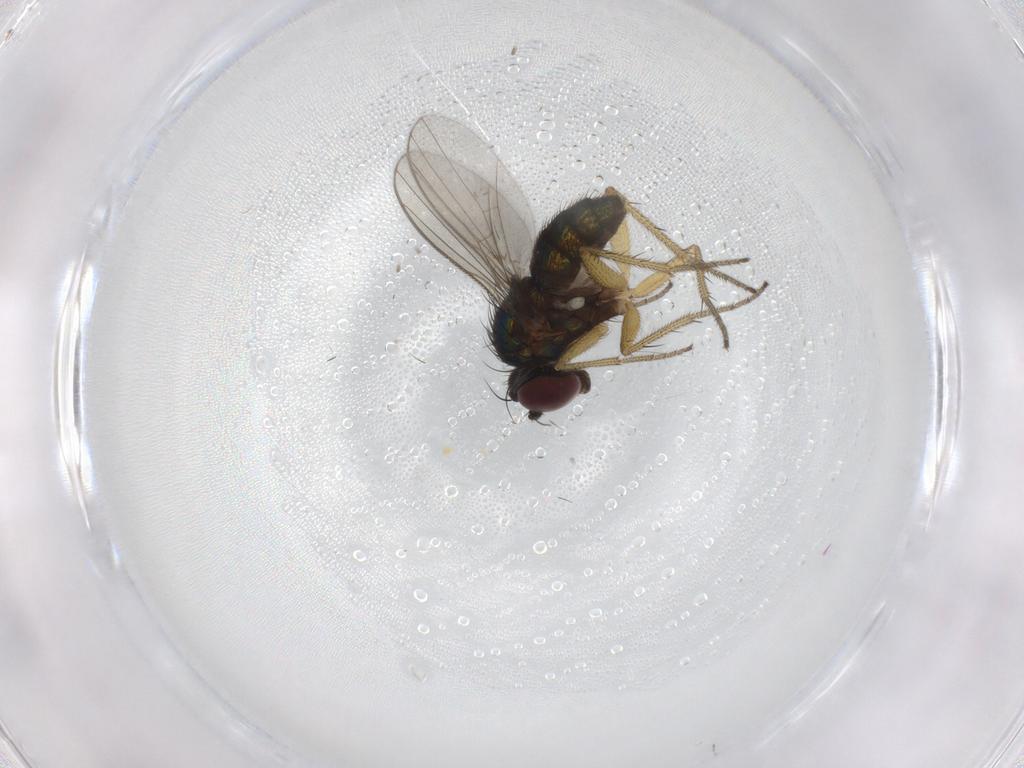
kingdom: Animalia
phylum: Arthropoda
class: Insecta
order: Diptera
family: Dolichopodidae
